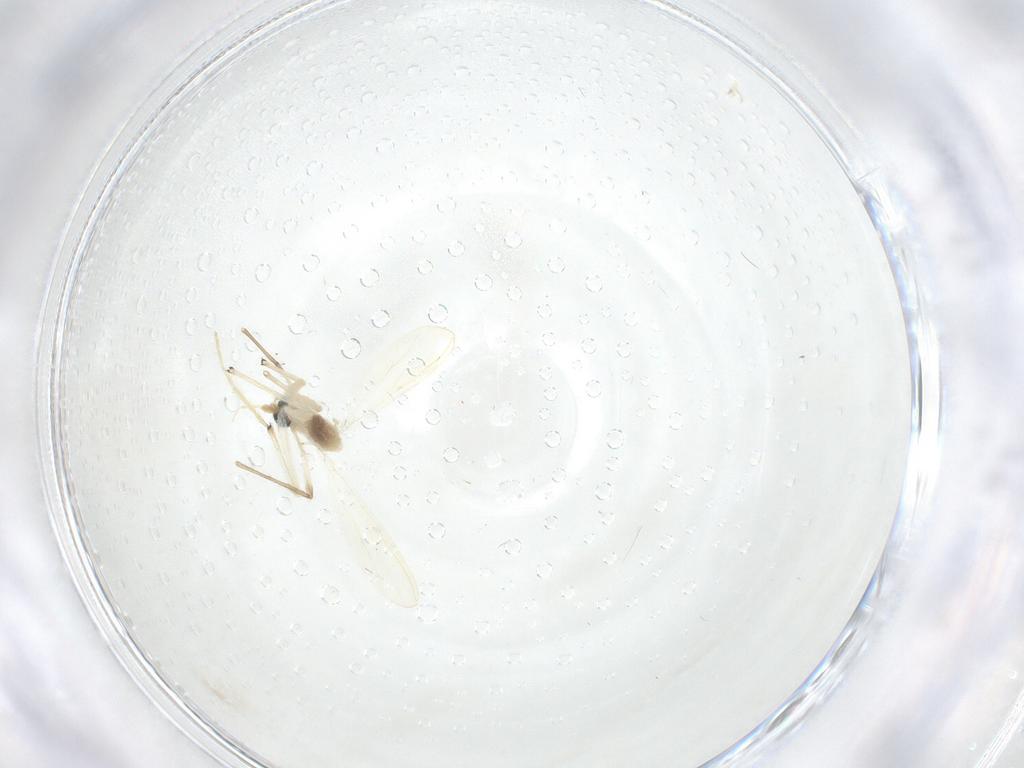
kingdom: Animalia
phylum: Arthropoda
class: Insecta
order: Diptera
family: Chironomidae
